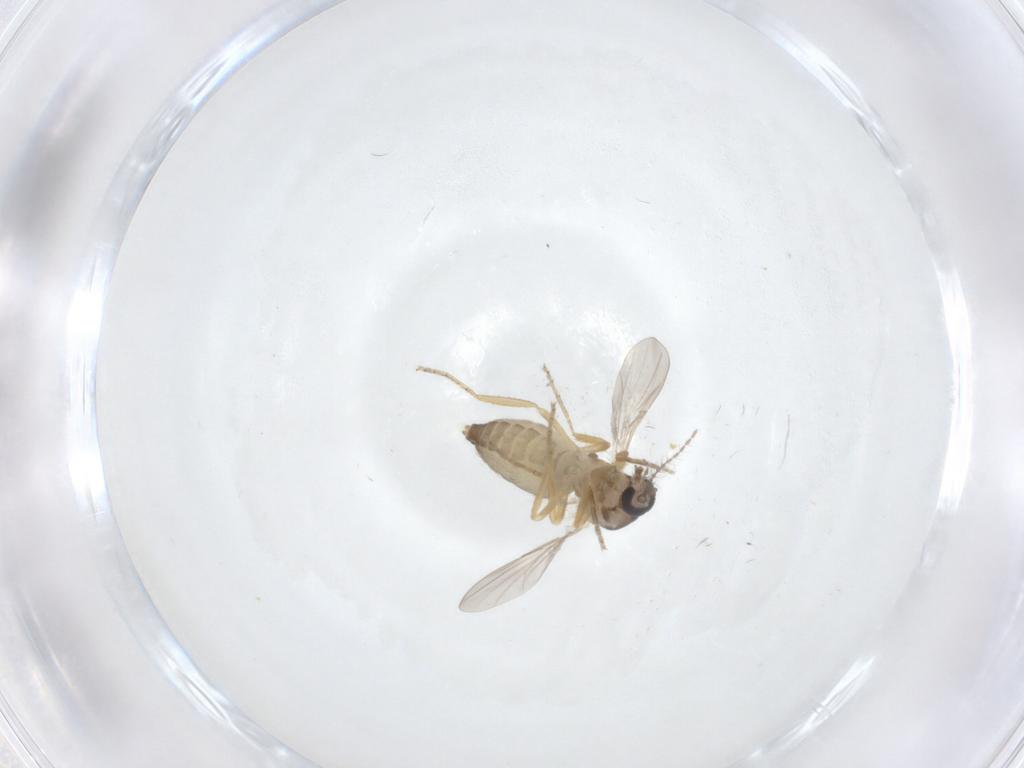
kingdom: Animalia
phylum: Arthropoda
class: Insecta
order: Diptera
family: Ceratopogonidae
